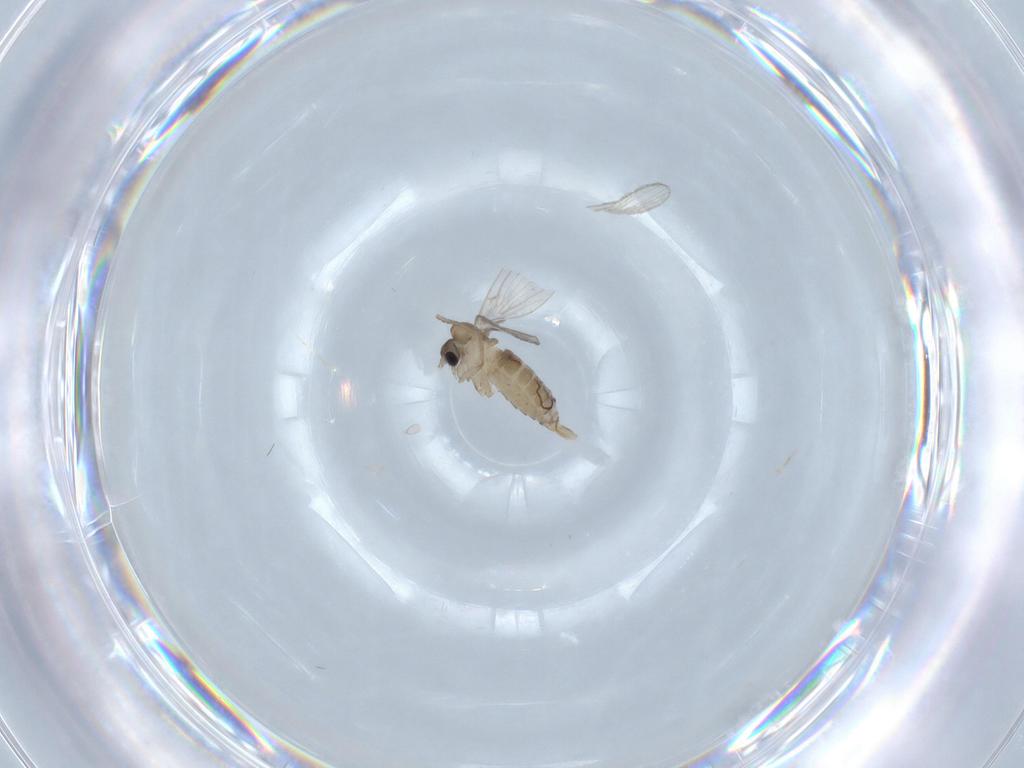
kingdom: Animalia
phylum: Arthropoda
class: Insecta
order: Diptera
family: Psychodidae
